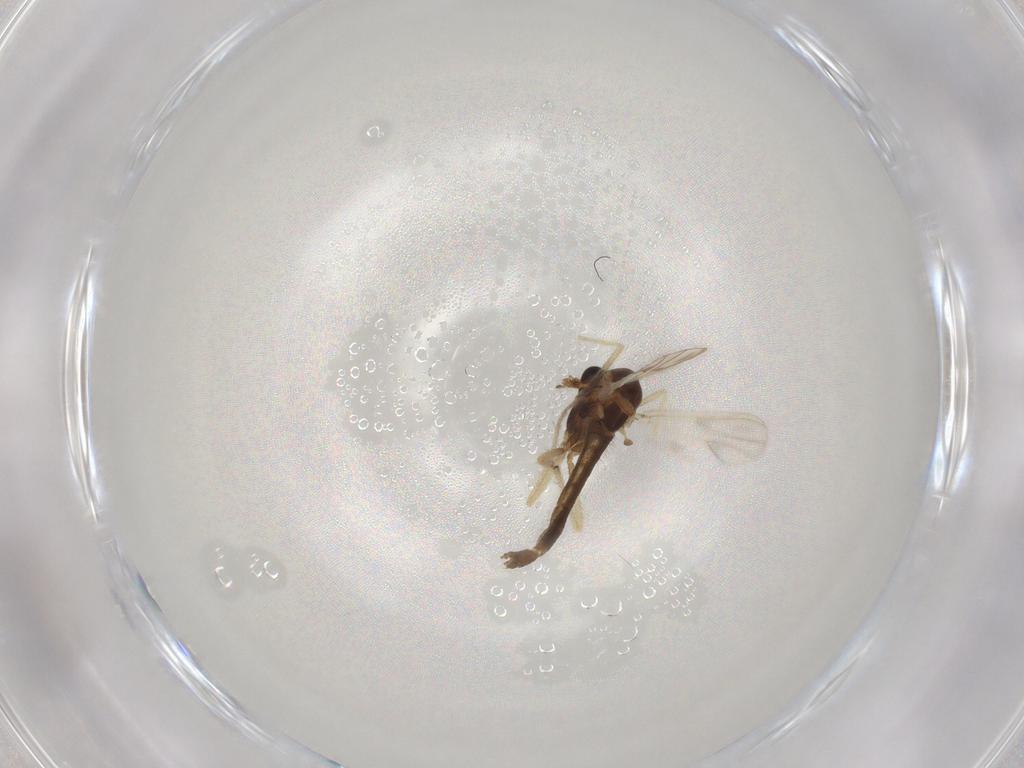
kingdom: Animalia
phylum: Arthropoda
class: Insecta
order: Diptera
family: Chironomidae
